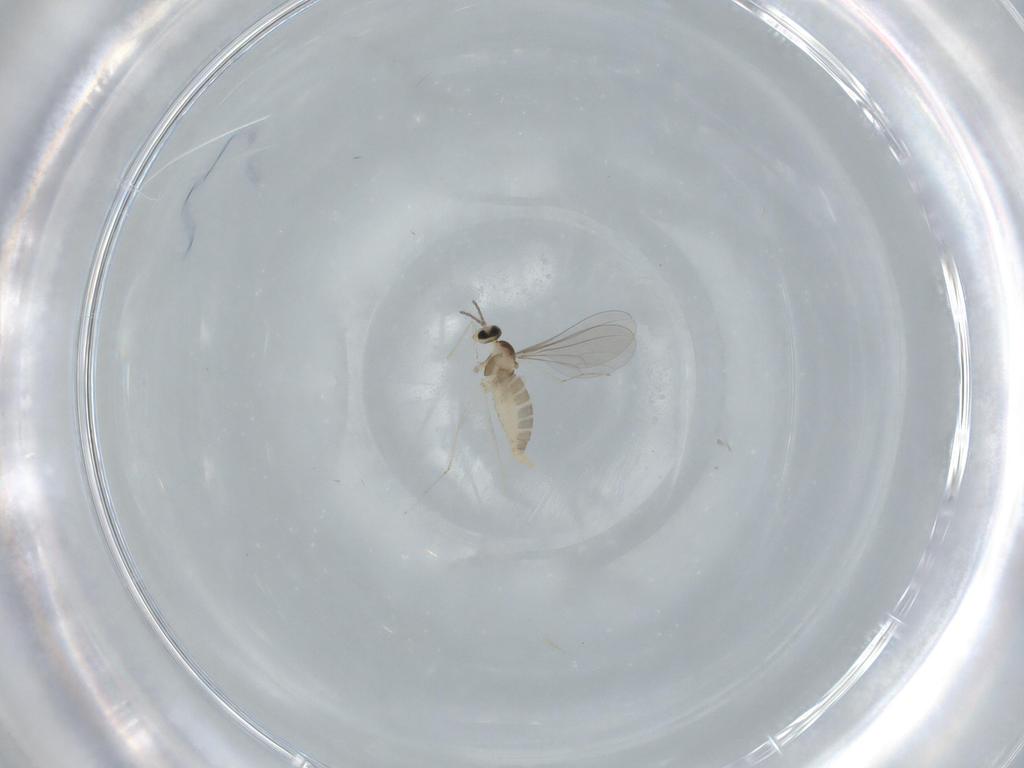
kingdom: Animalia
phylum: Arthropoda
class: Insecta
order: Diptera
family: Cecidomyiidae
